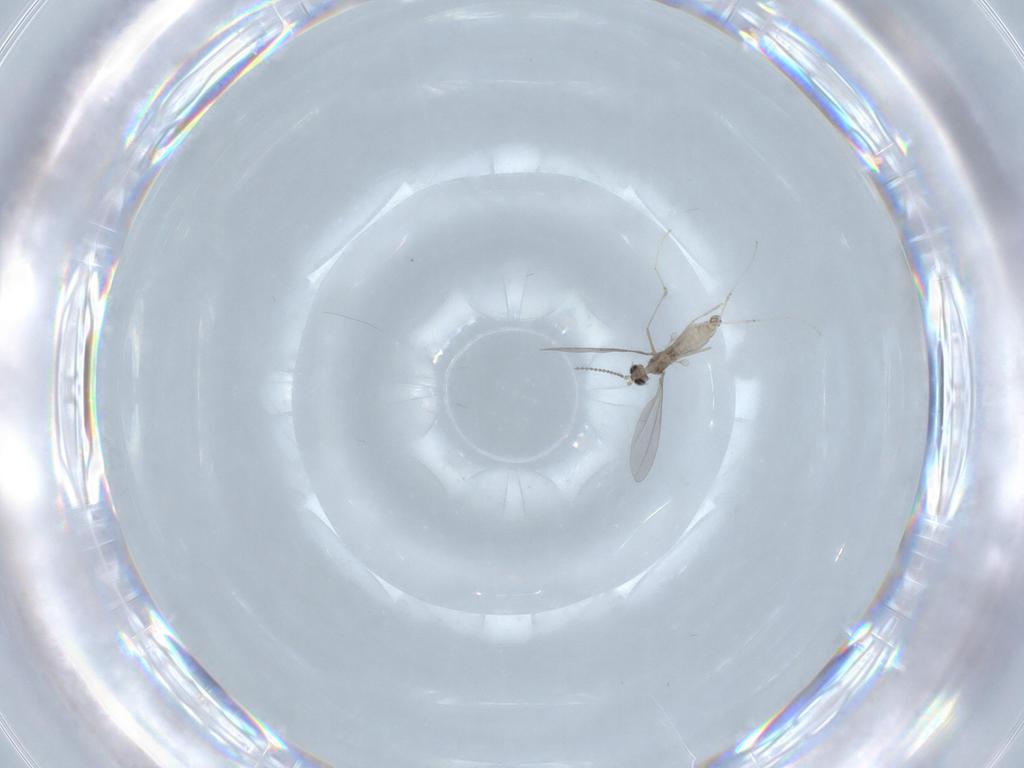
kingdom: Animalia
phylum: Arthropoda
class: Insecta
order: Diptera
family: Cecidomyiidae
